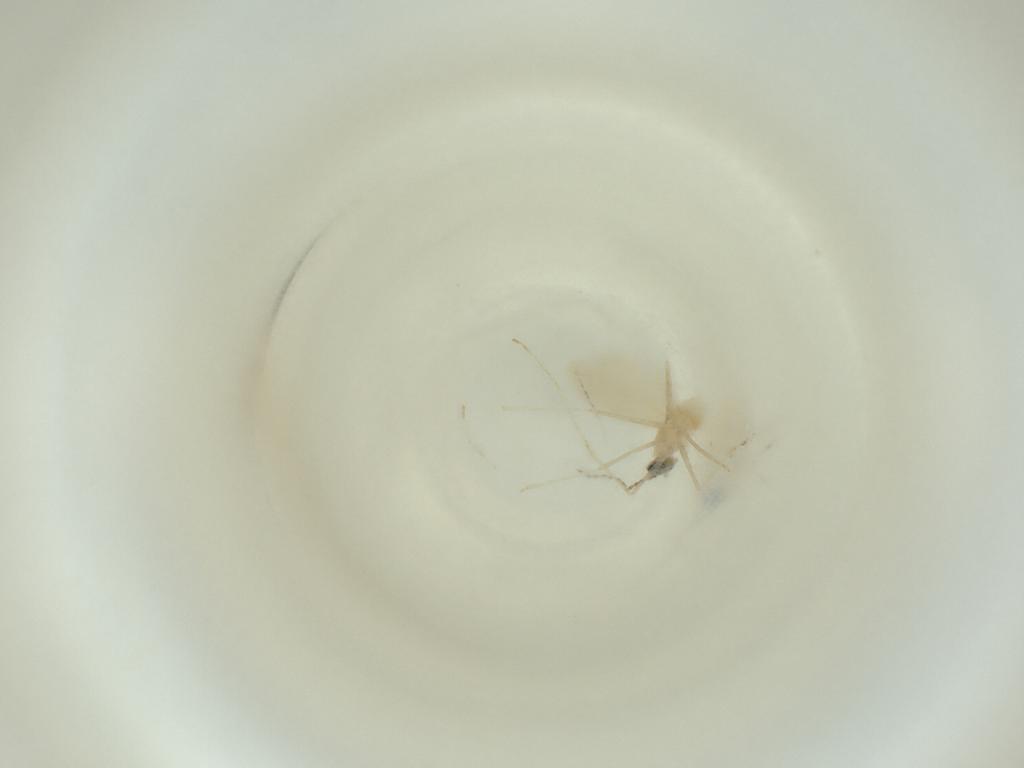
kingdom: Animalia
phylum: Arthropoda
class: Insecta
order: Diptera
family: Cecidomyiidae
